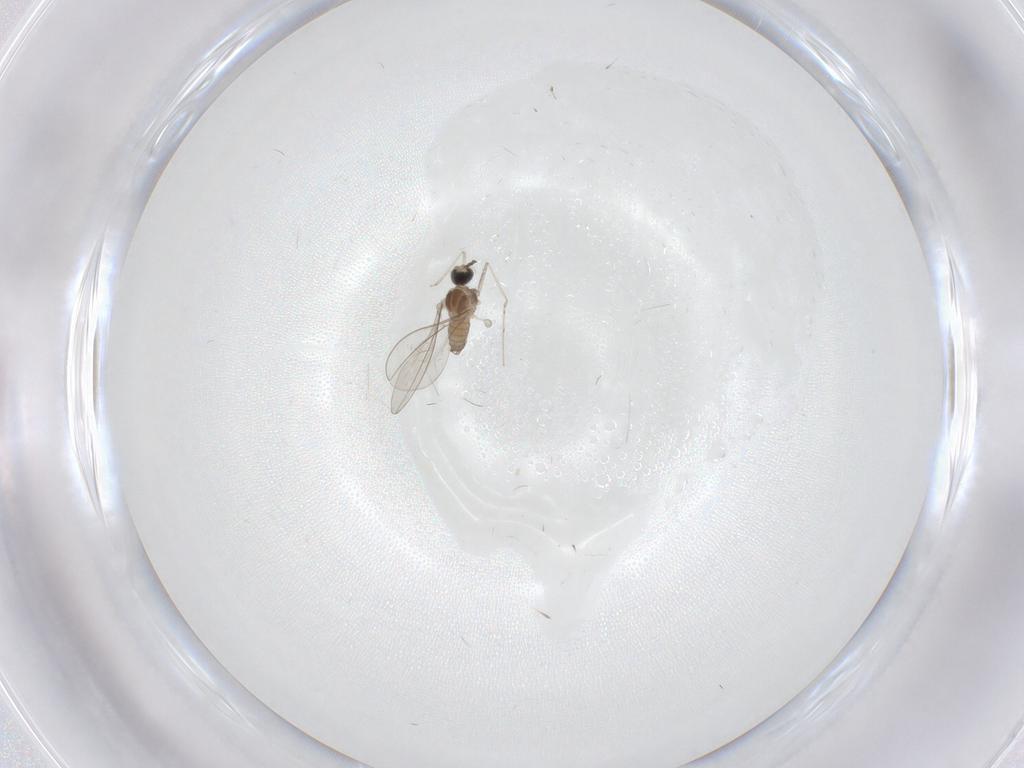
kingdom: Animalia
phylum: Arthropoda
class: Insecta
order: Diptera
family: Cecidomyiidae
